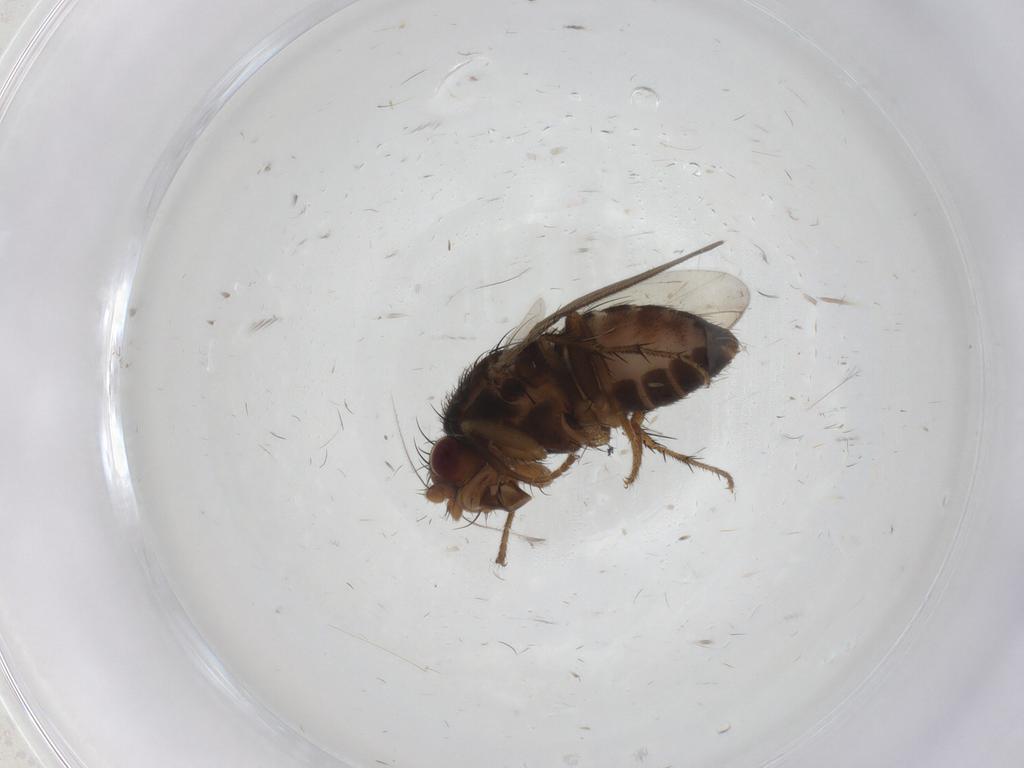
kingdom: Animalia
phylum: Arthropoda
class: Insecta
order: Diptera
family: Sphaeroceridae
